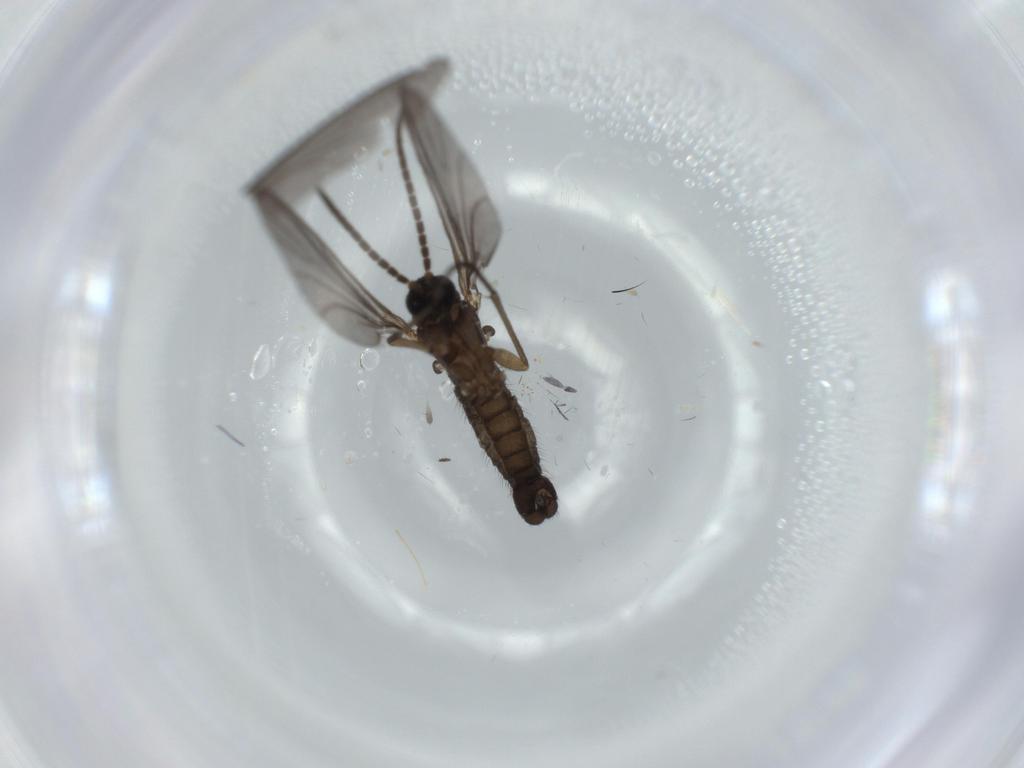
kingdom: Animalia
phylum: Arthropoda
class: Insecta
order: Diptera
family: Sciaridae
